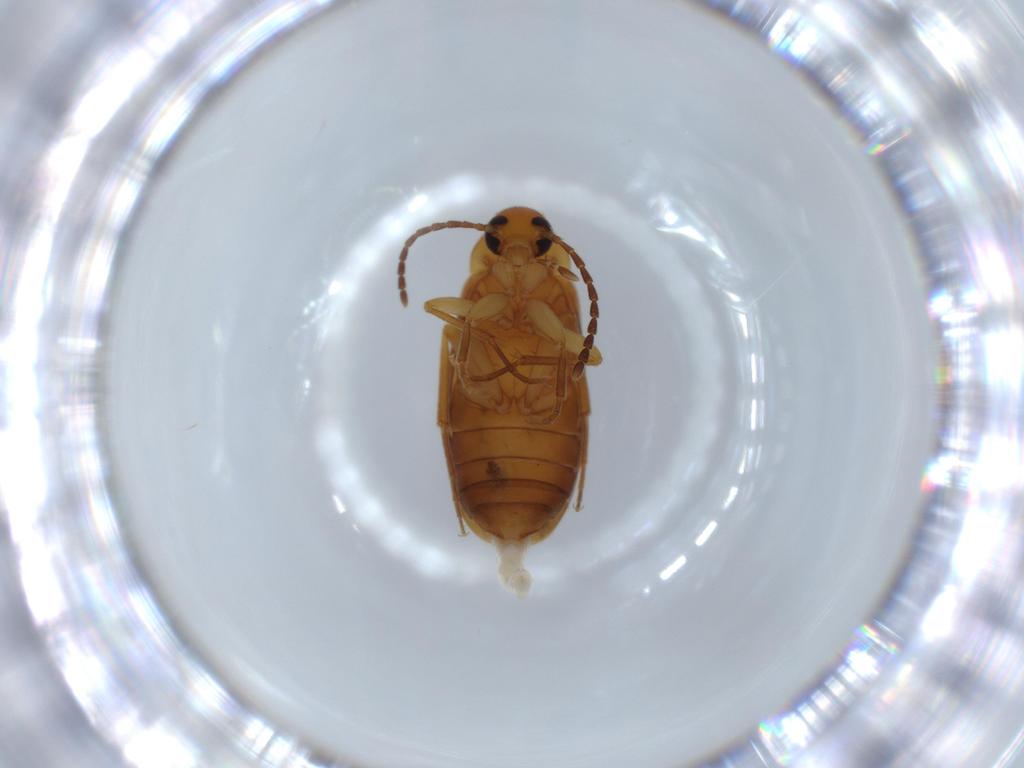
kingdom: Animalia
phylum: Arthropoda
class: Insecta
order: Coleoptera
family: Scraptiidae
